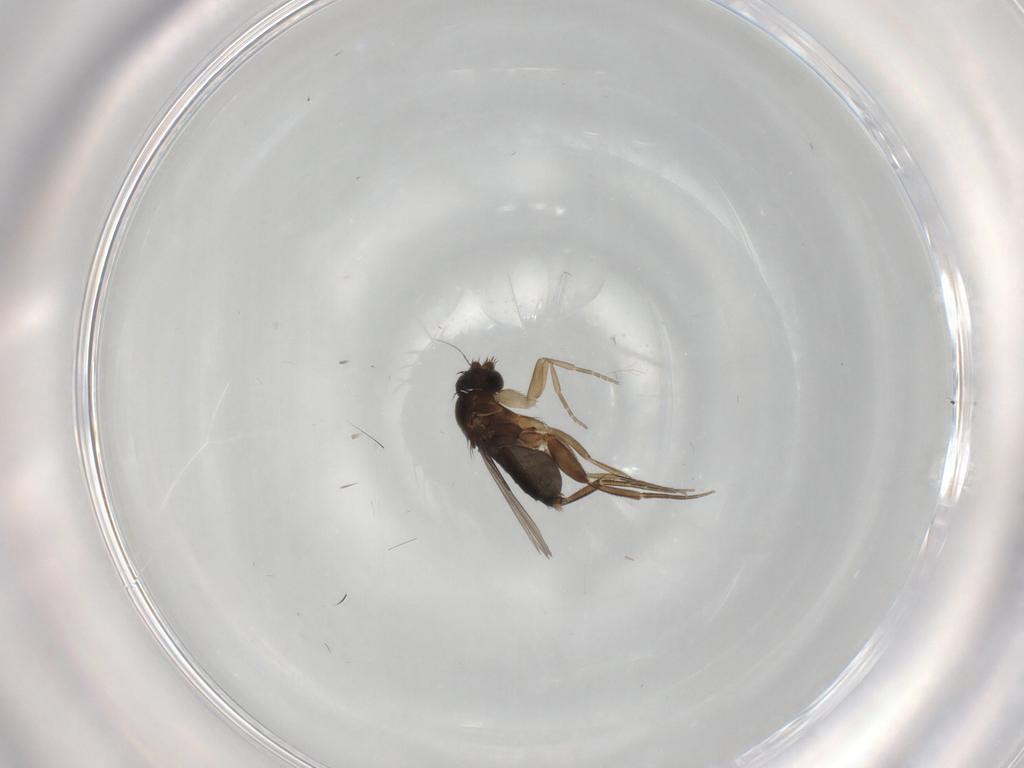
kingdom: Animalia
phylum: Arthropoda
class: Insecta
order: Diptera
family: Phoridae
